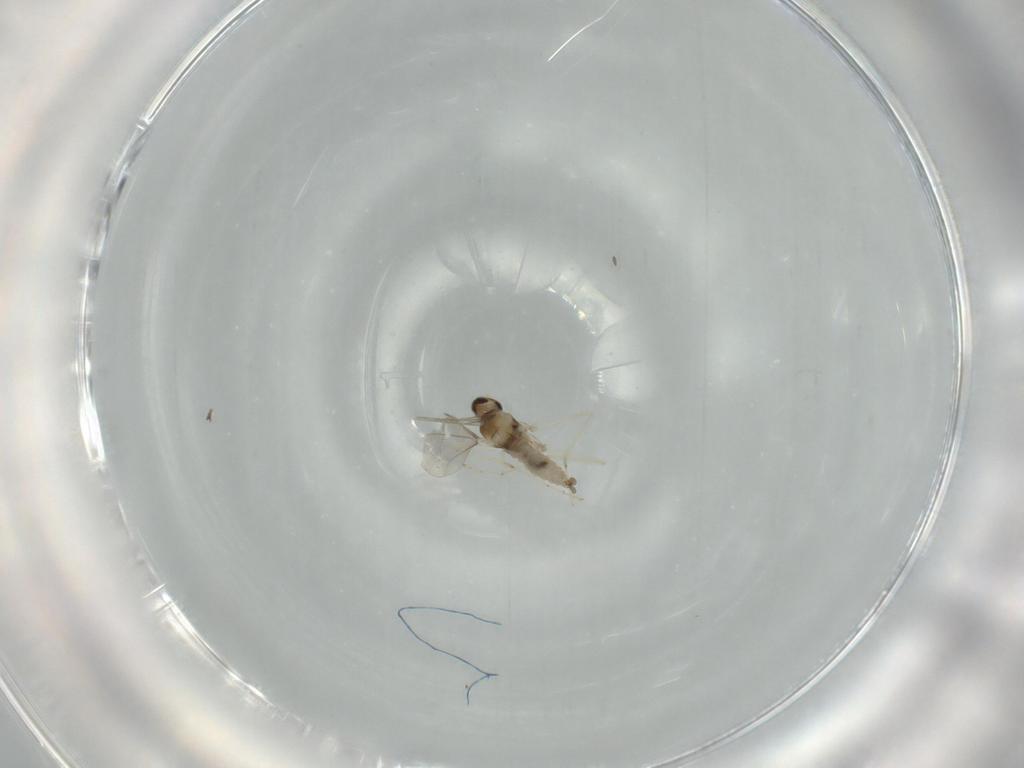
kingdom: Animalia
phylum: Arthropoda
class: Insecta
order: Diptera
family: Cecidomyiidae
